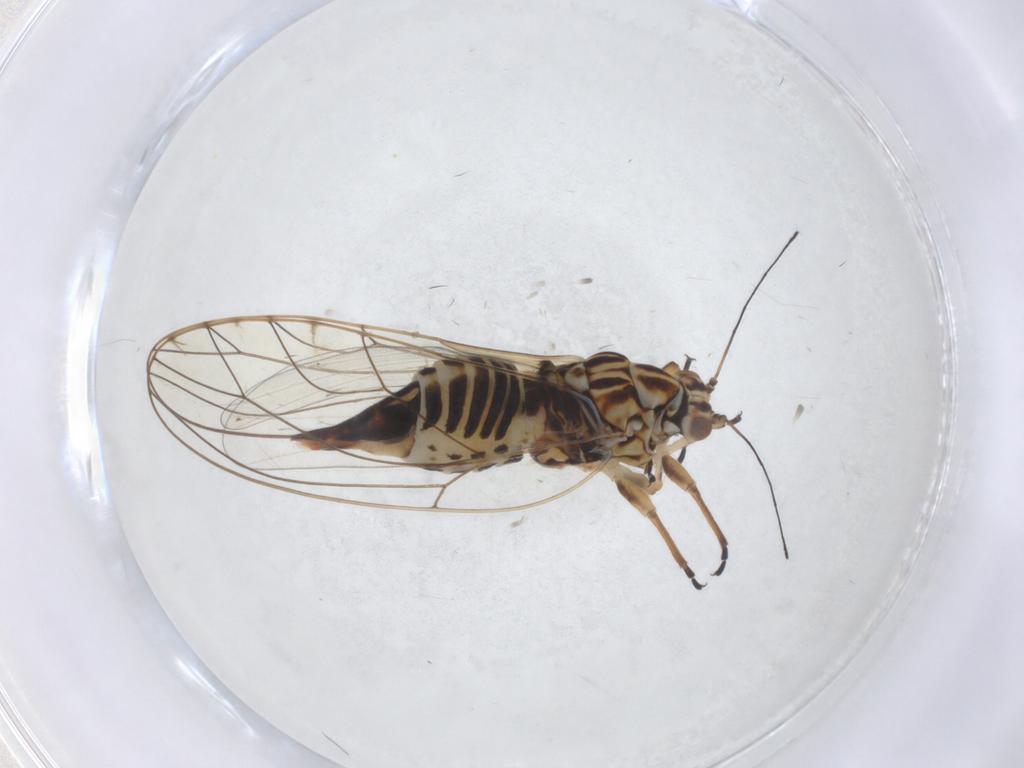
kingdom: Animalia
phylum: Arthropoda
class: Insecta
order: Hemiptera
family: Triozidae
